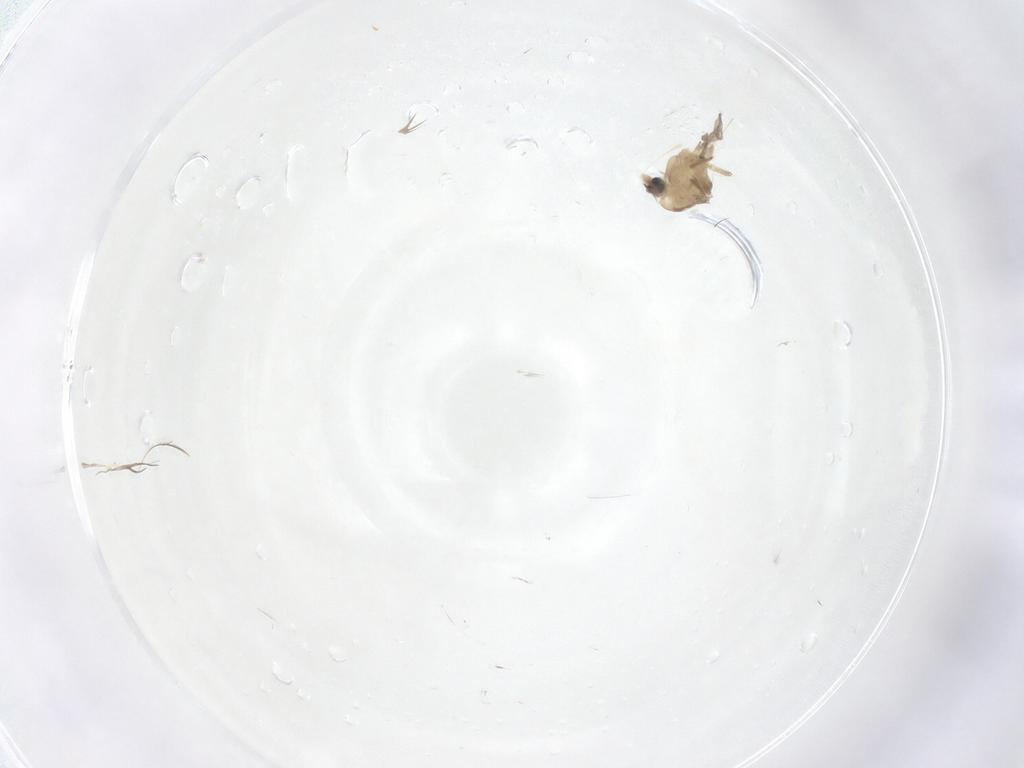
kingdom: Animalia
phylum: Arthropoda
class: Insecta
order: Diptera
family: Chironomidae
